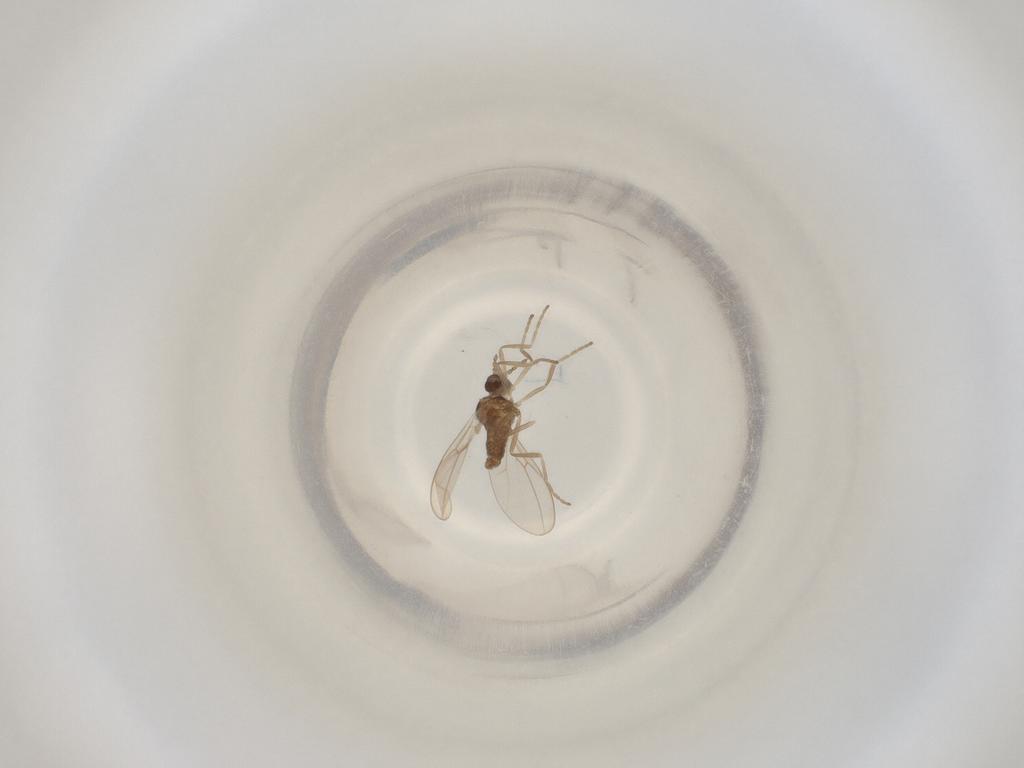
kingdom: Animalia
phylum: Arthropoda
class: Insecta
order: Diptera
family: Cecidomyiidae
